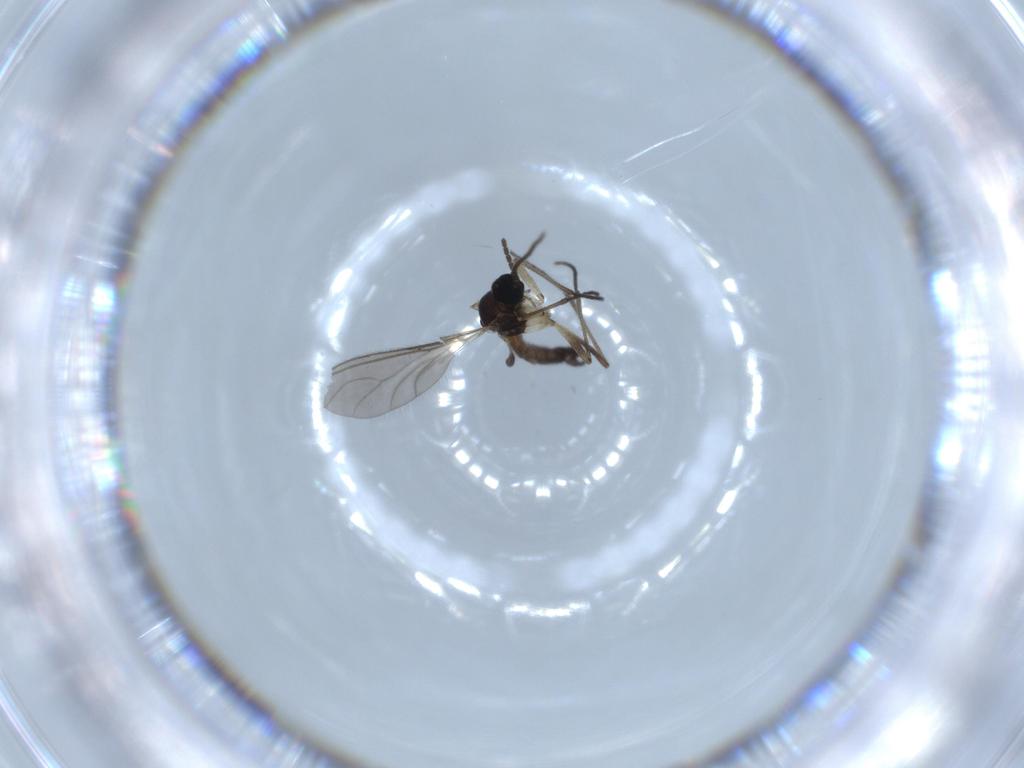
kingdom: Animalia
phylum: Arthropoda
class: Insecta
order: Diptera
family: Sciaridae
